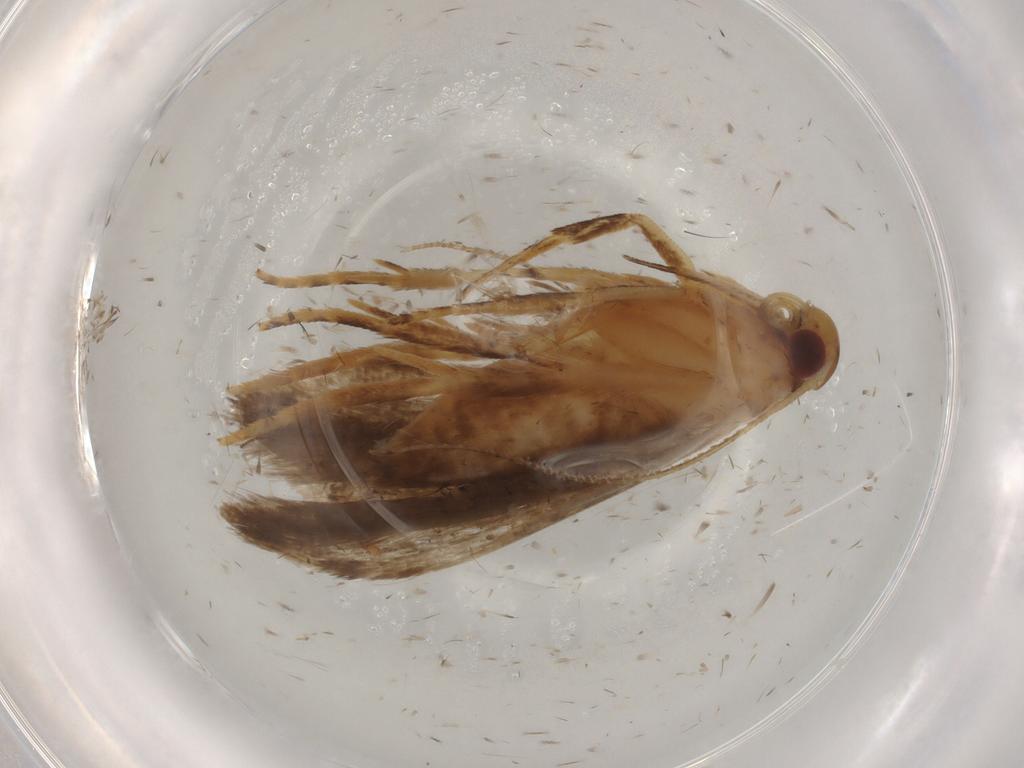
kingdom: Animalia
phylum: Arthropoda
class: Insecta
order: Lepidoptera
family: Gelechiidae
